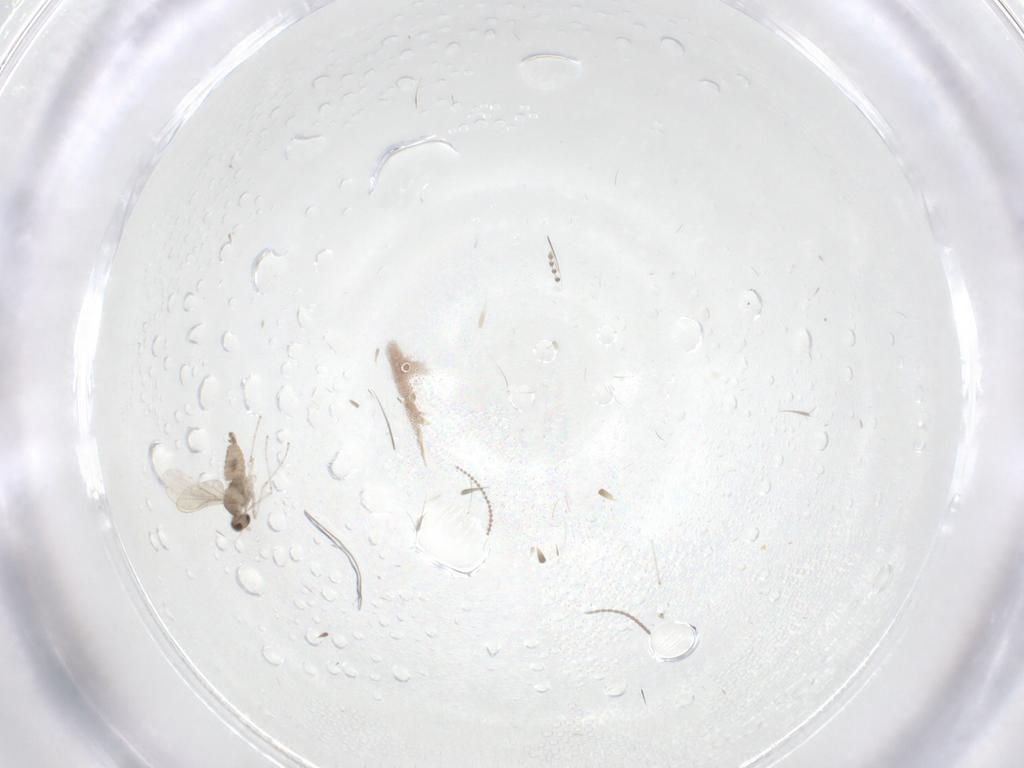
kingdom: Animalia
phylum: Arthropoda
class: Insecta
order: Diptera
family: Cecidomyiidae
